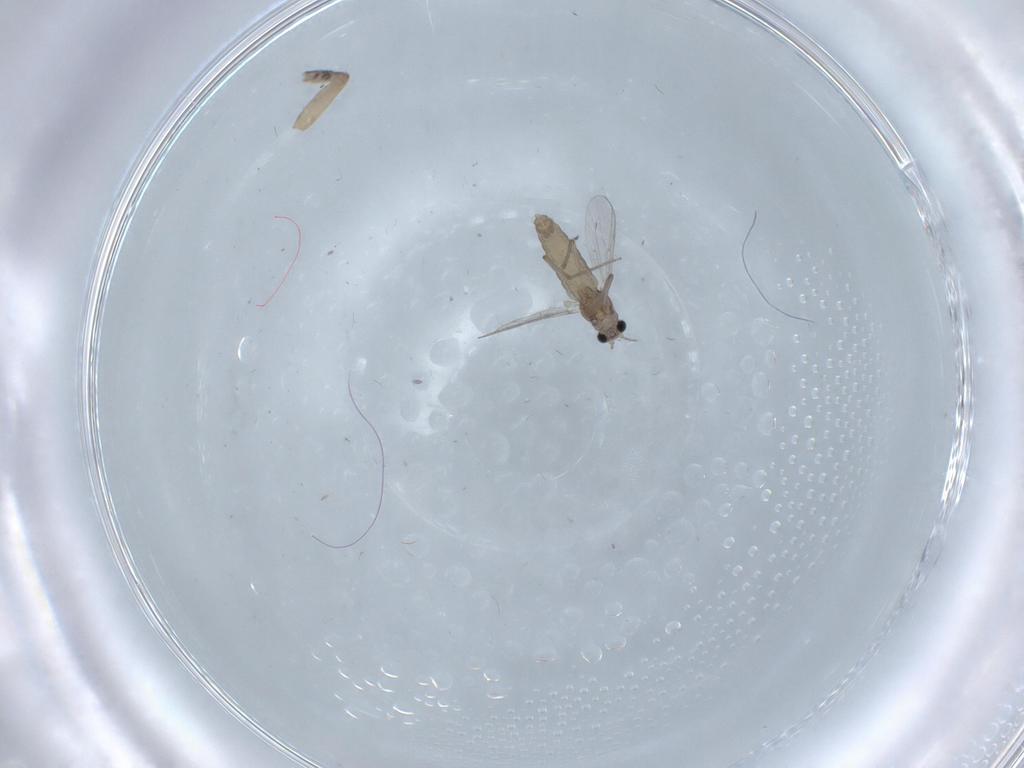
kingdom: Animalia
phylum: Arthropoda
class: Insecta
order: Diptera
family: Chironomidae
